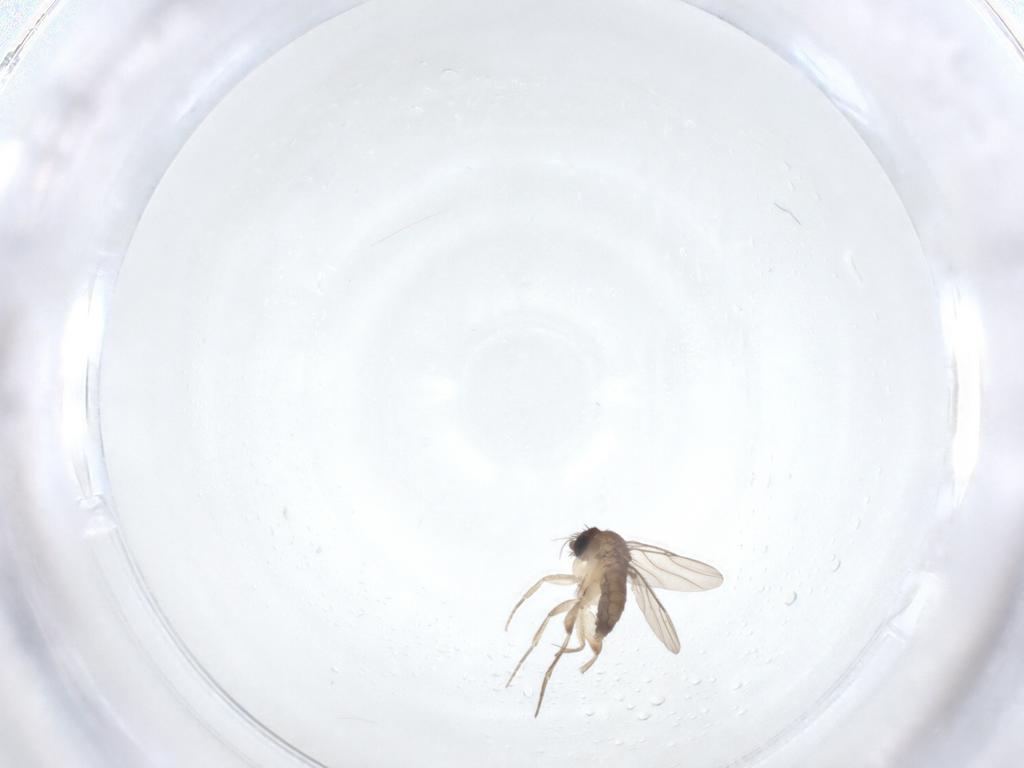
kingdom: Animalia
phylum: Arthropoda
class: Insecta
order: Diptera
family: Phoridae
